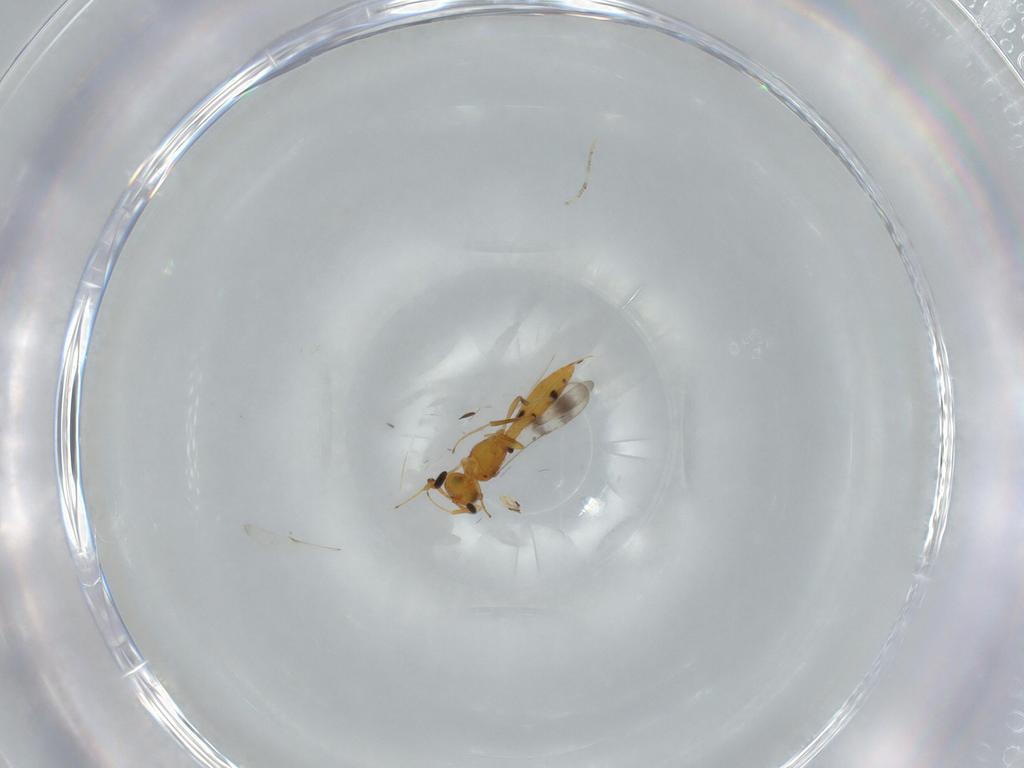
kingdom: Animalia
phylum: Arthropoda
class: Insecta
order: Hymenoptera
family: Scelionidae
